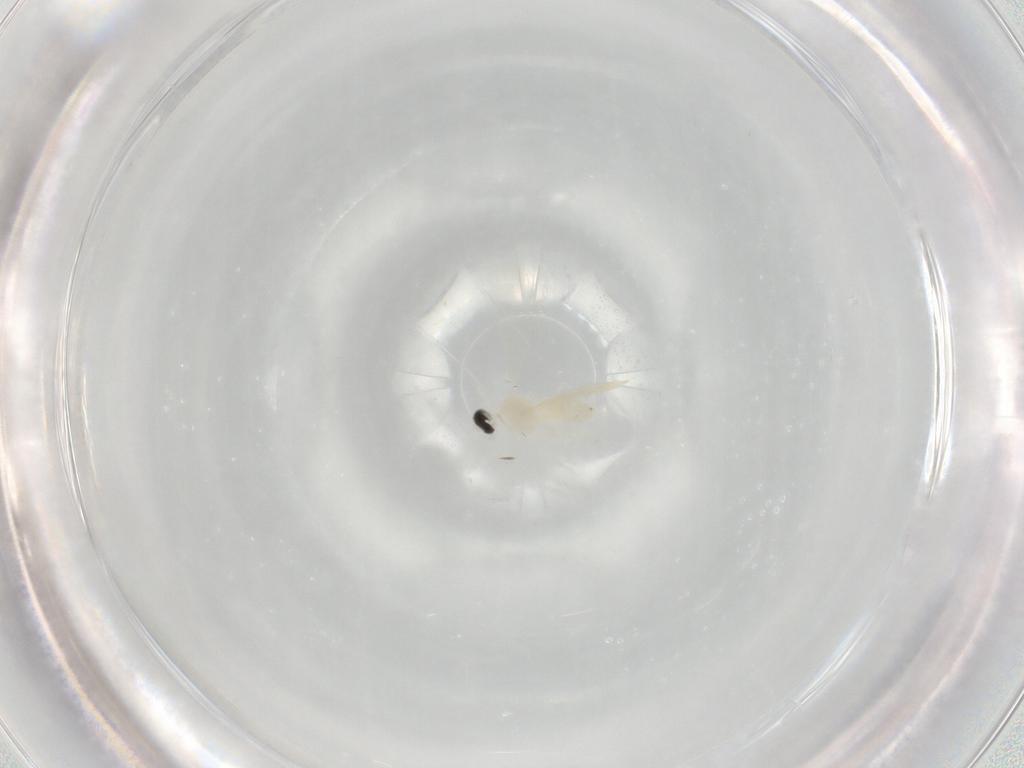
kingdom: Animalia
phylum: Arthropoda
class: Insecta
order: Diptera
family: Cecidomyiidae
